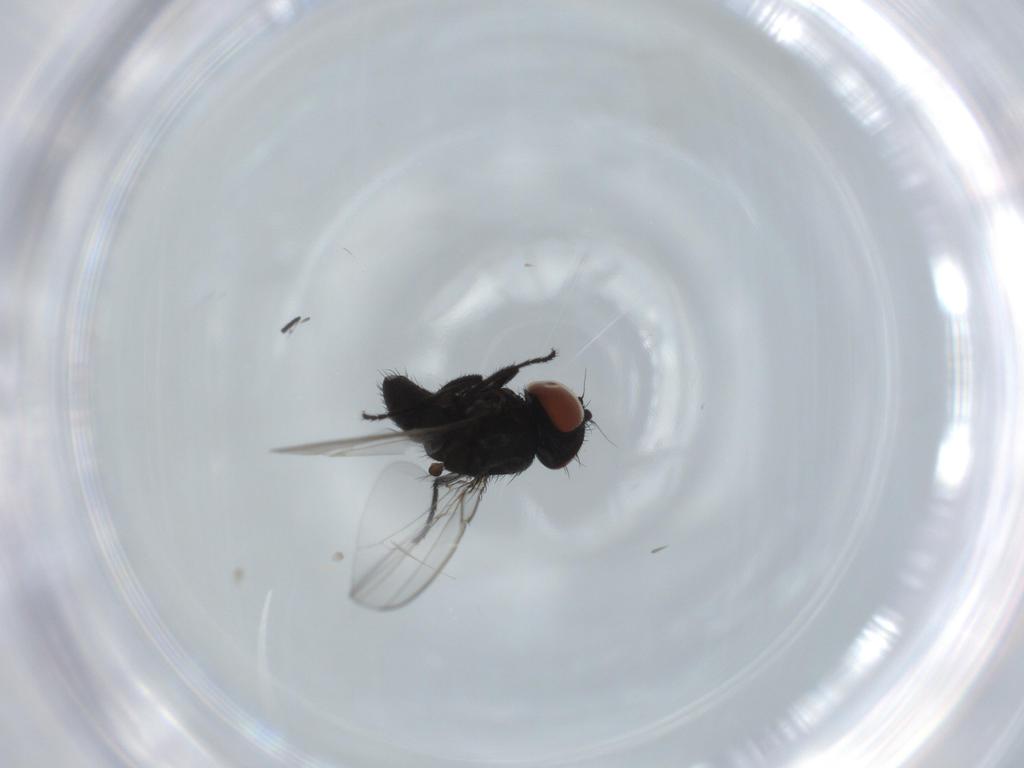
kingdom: Animalia
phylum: Arthropoda
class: Insecta
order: Diptera
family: Milichiidae
